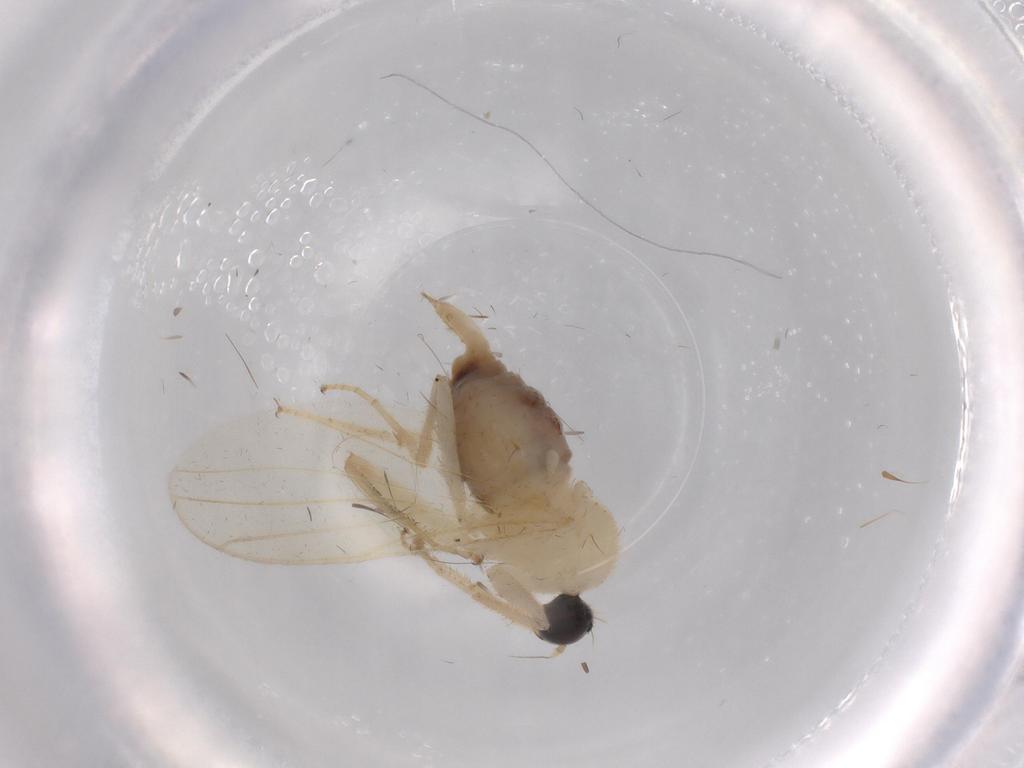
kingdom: Animalia
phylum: Arthropoda
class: Insecta
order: Diptera
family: Hybotidae
